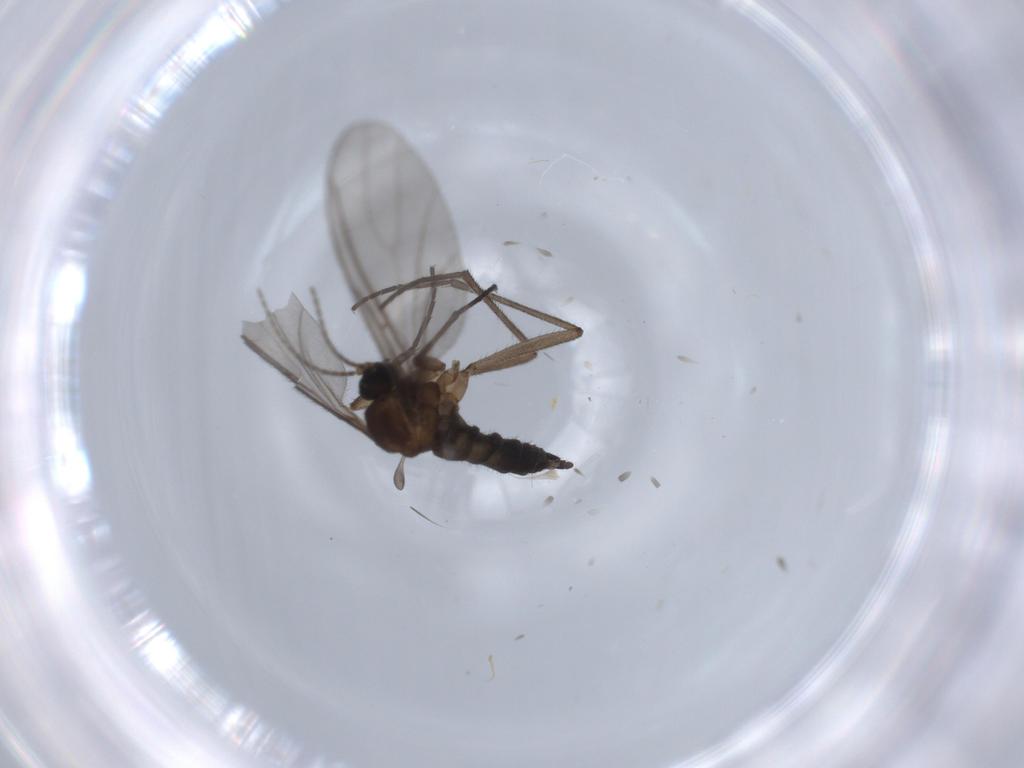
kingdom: Animalia
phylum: Arthropoda
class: Insecta
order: Diptera
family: Sciaridae
